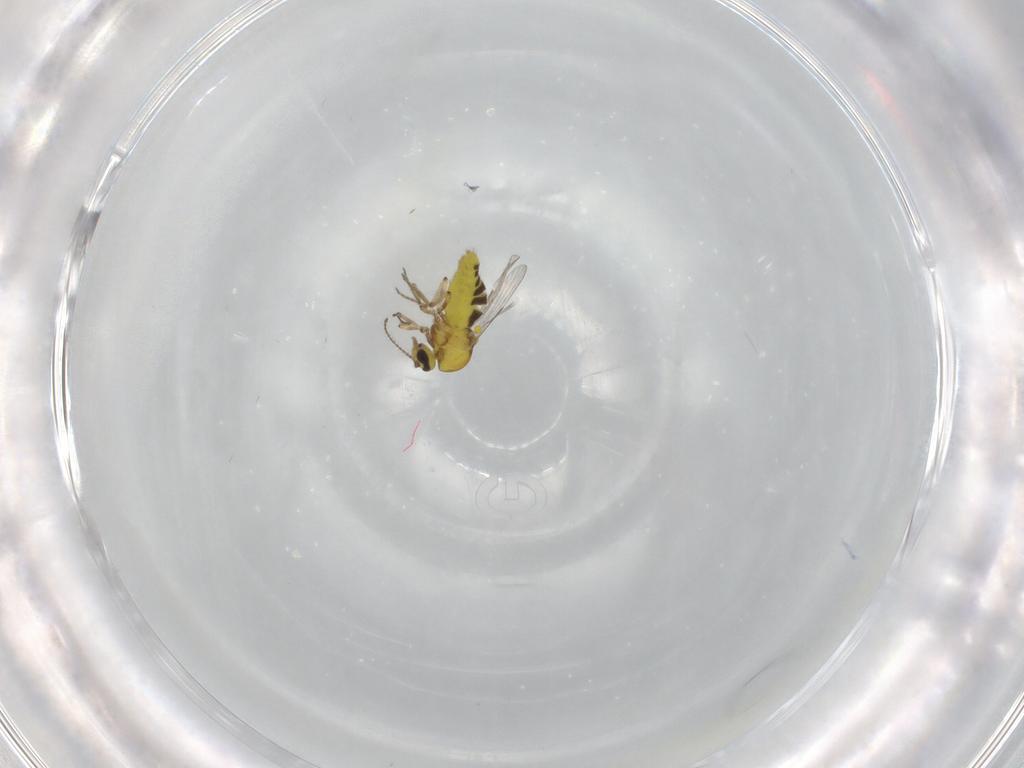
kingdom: Animalia
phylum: Arthropoda
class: Insecta
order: Diptera
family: Ceratopogonidae
